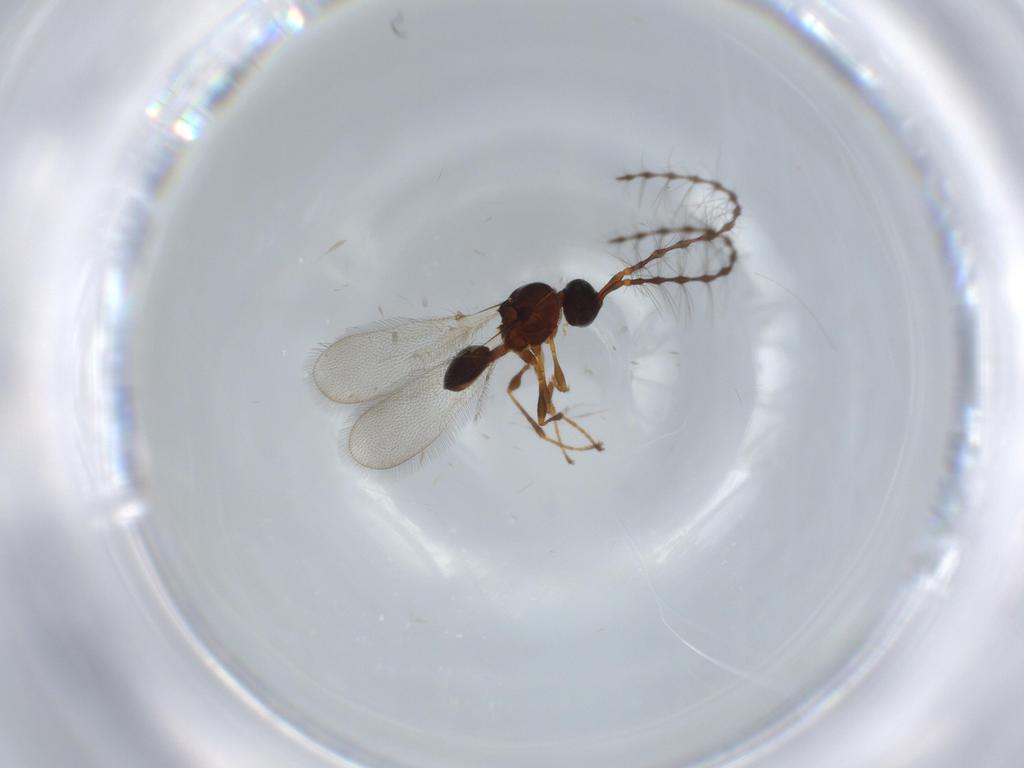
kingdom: Animalia
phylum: Arthropoda
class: Insecta
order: Hymenoptera
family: Diapriidae
